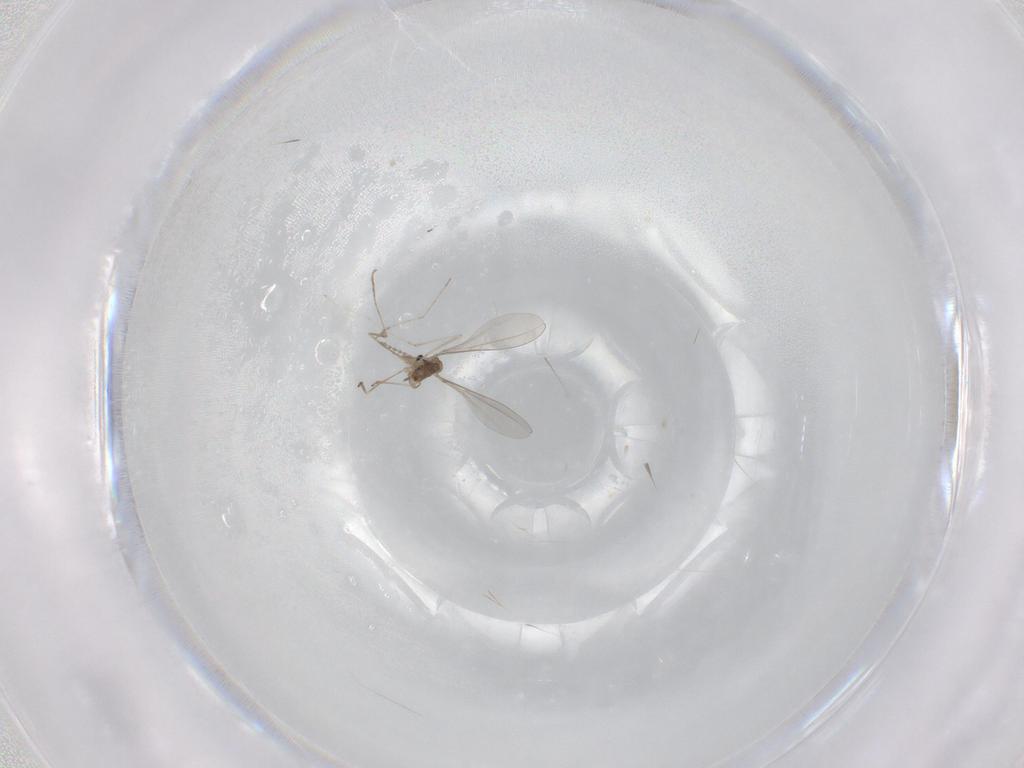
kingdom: Animalia
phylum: Arthropoda
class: Insecta
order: Diptera
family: Cecidomyiidae
